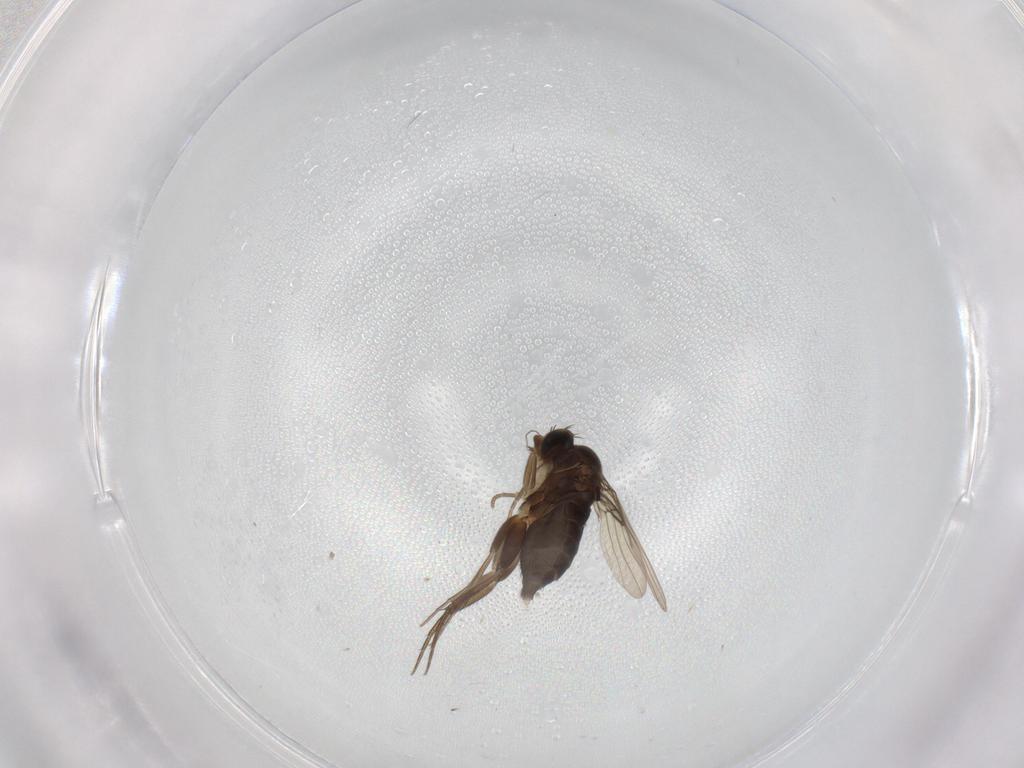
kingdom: Animalia
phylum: Arthropoda
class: Insecta
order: Diptera
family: Phoridae
